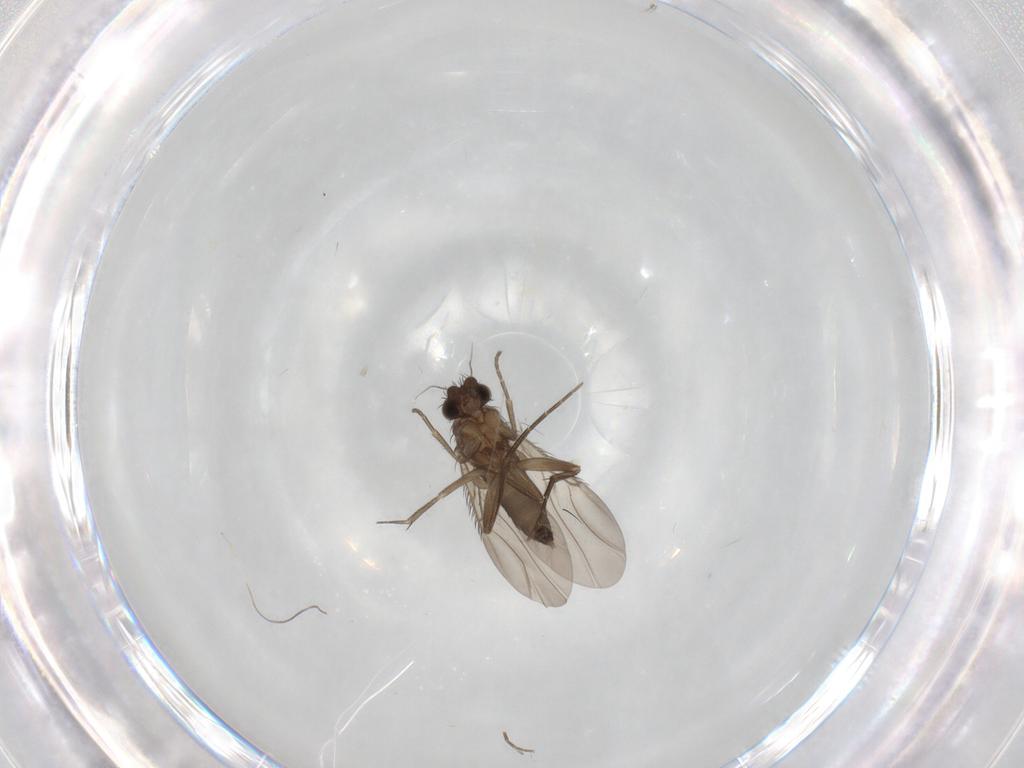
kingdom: Animalia
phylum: Arthropoda
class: Insecta
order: Diptera
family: Phoridae
